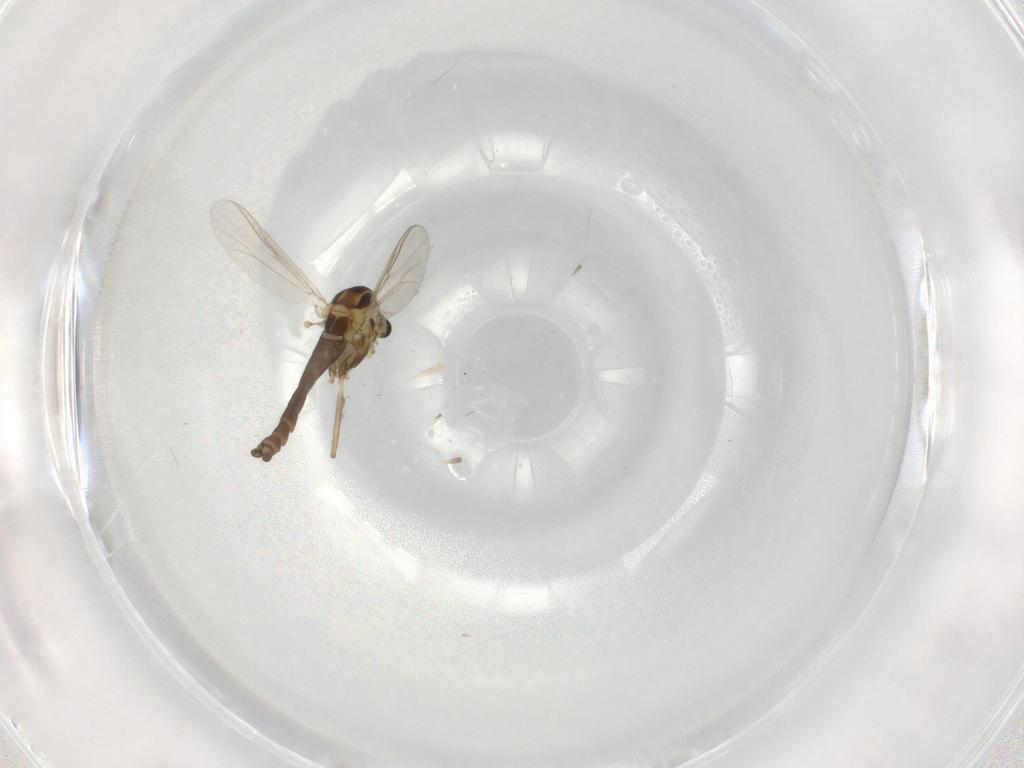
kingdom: Animalia
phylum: Arthropoda
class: Insecta
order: Diptera
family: Chironomidae
